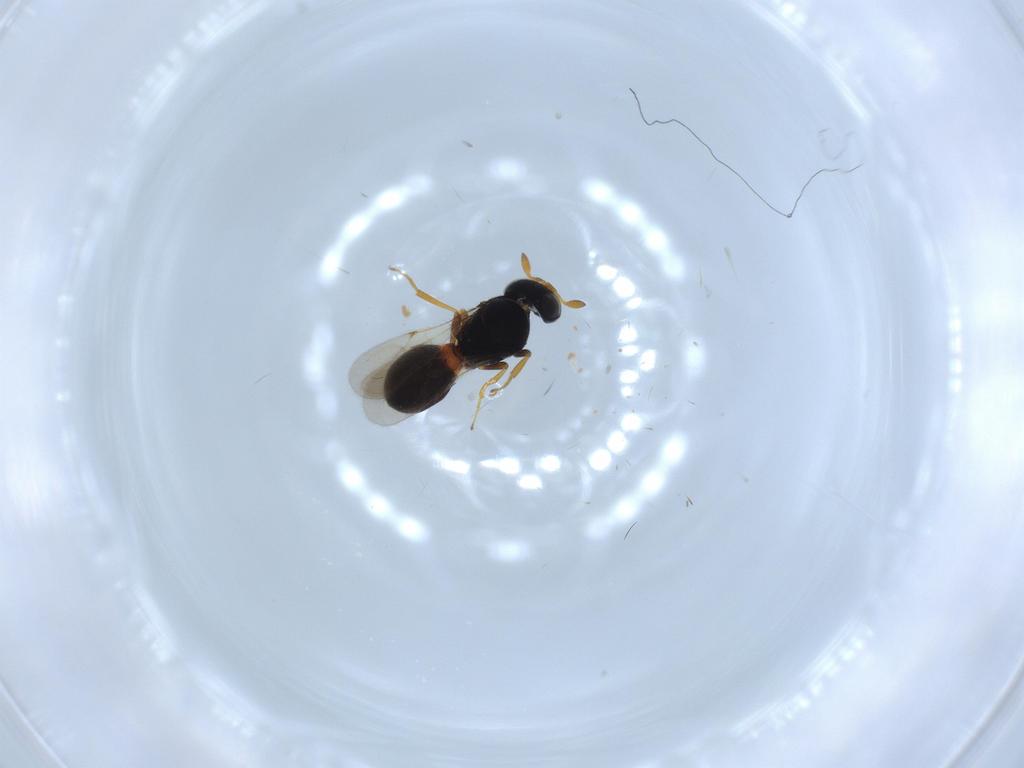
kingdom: Animalia
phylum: Arthropoda
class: Insecta
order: Hymenoptera
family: Scelionidae
